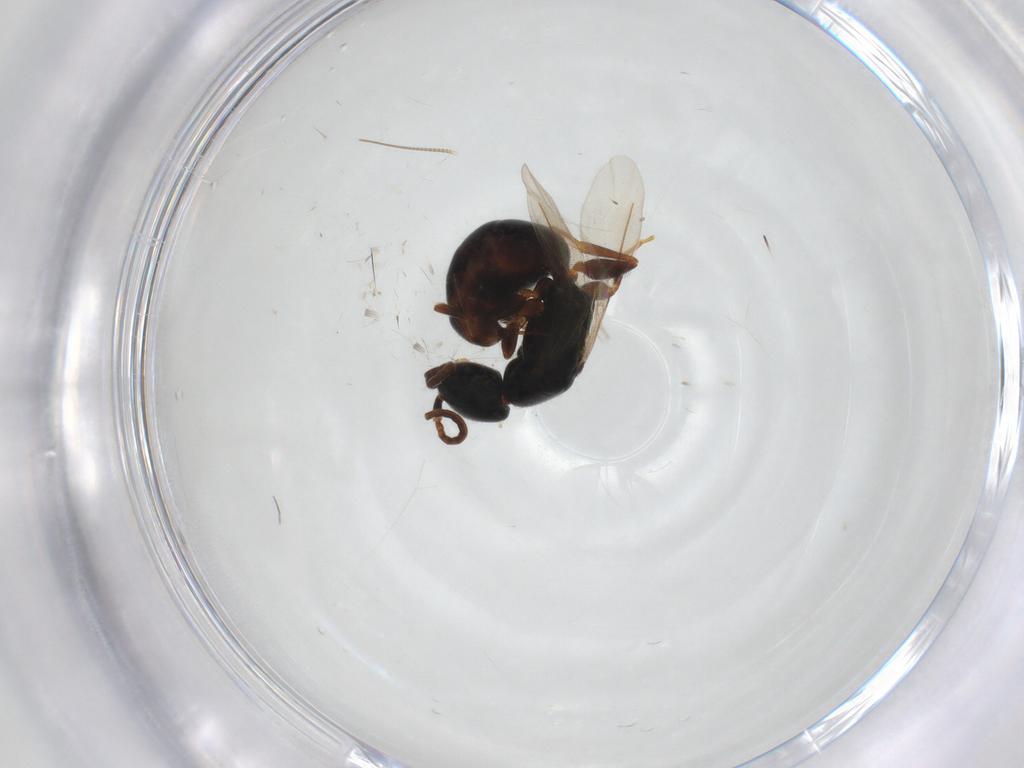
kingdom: Animalia
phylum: Arthropoda
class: Insecta
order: Hymenoptera
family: Bethylidae
